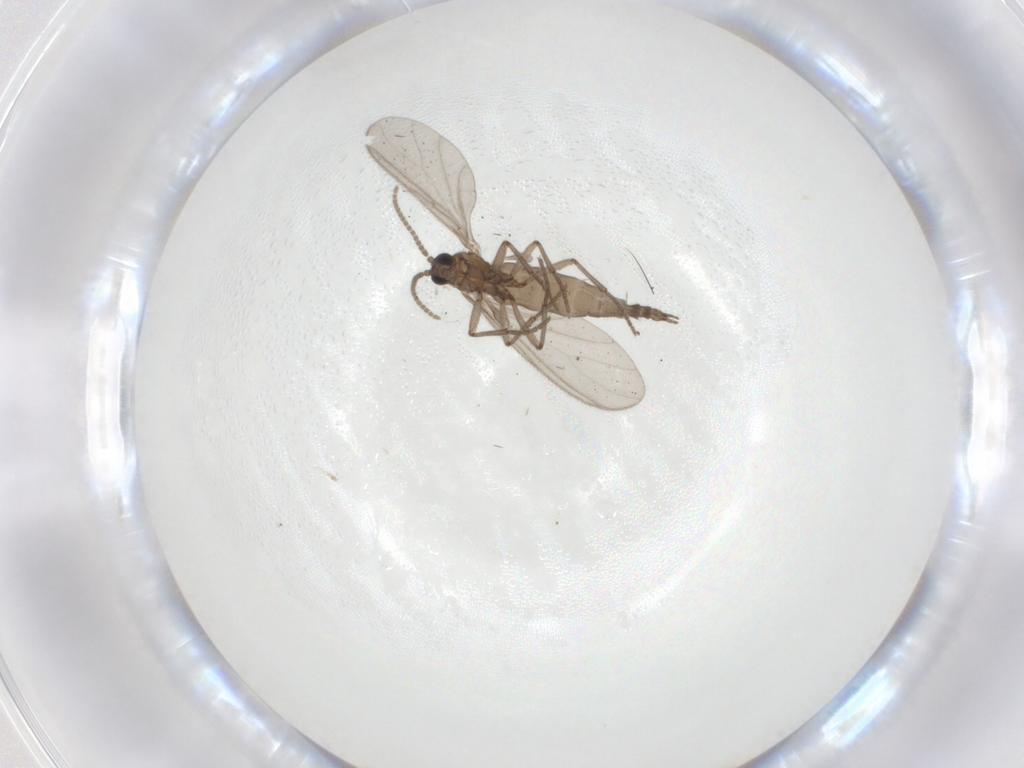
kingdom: Animalia
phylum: Arthropoda
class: Insecta
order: Diptera
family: Sciaridae
